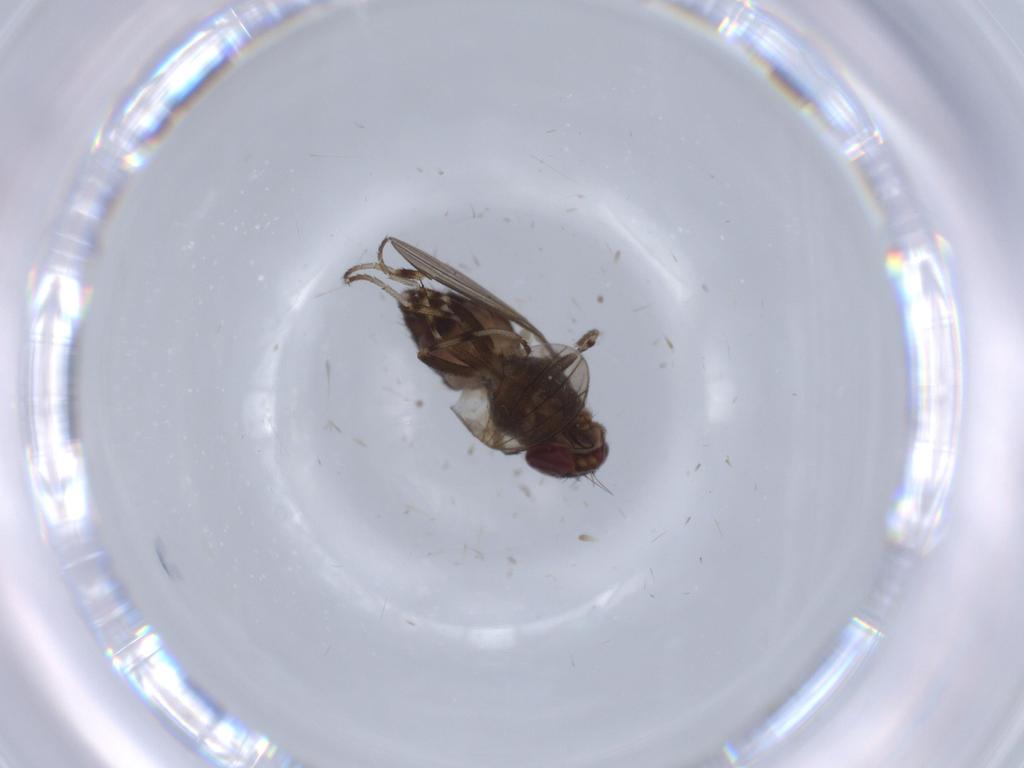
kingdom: Animalia
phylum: Arthropoda
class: Insecta
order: Diptera
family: Heleomyzidae
